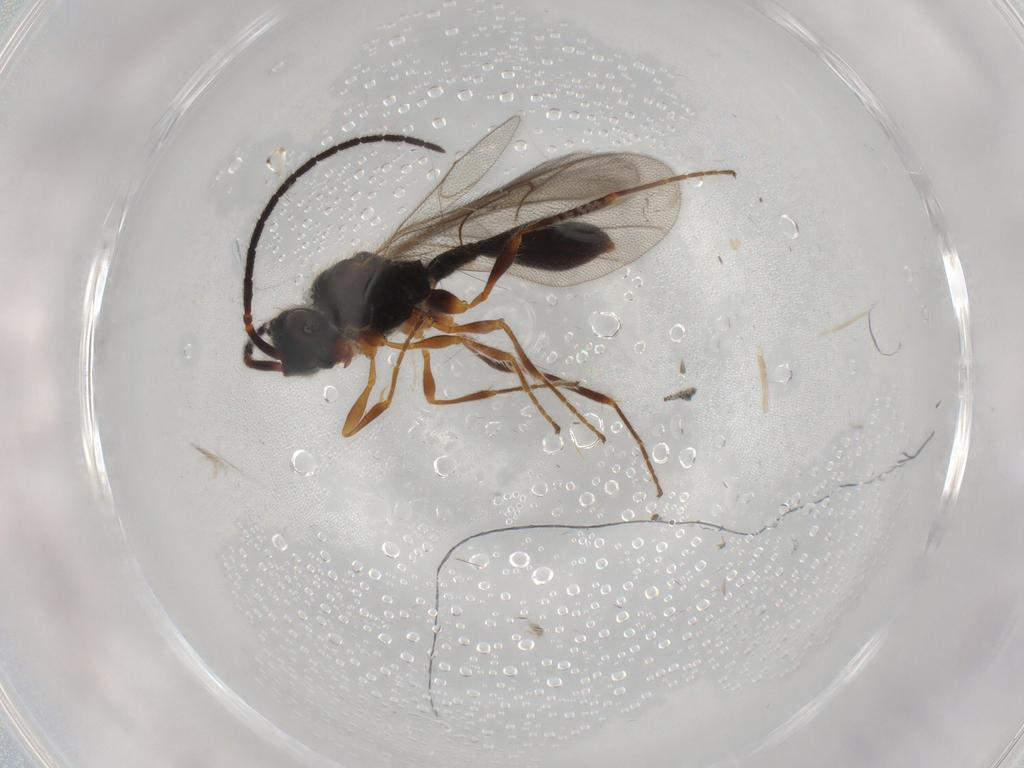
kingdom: Animalia
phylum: Arthropoda
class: Insecta
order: Hymenoptera
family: Diapriidae
